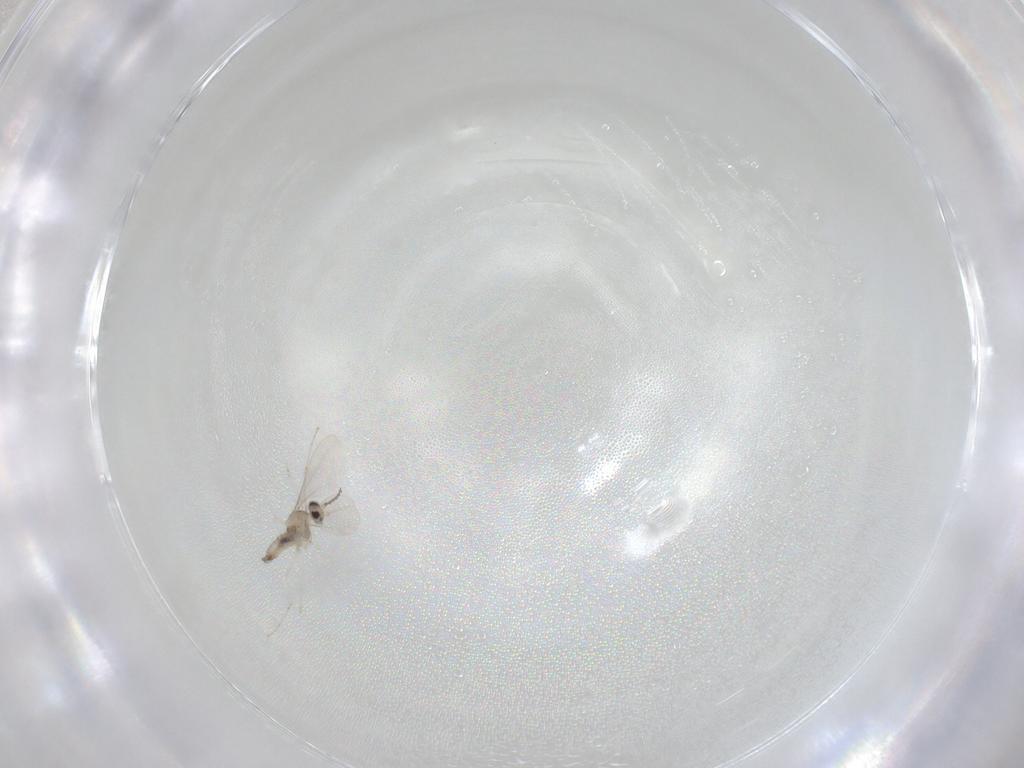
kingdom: Animalia
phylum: Arthropoda
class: Insecta
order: Diptera
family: Cecidomyiidae
